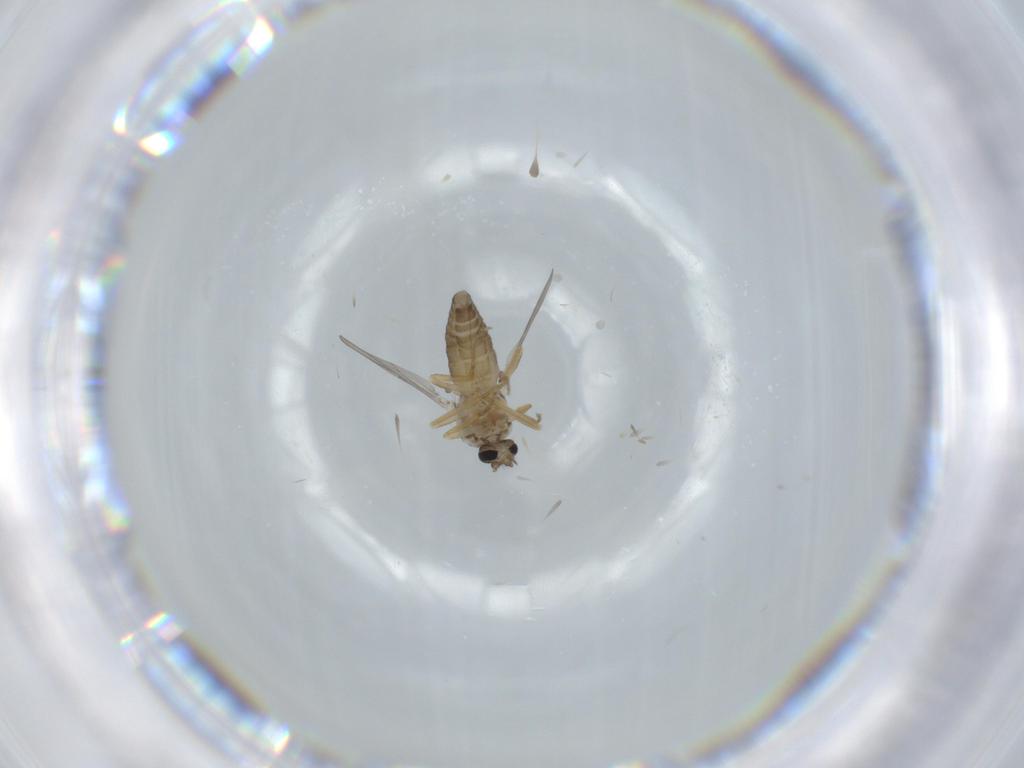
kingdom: Animalia
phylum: Arthropoda
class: Insecta
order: Diptera
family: Ceratopogonidae
